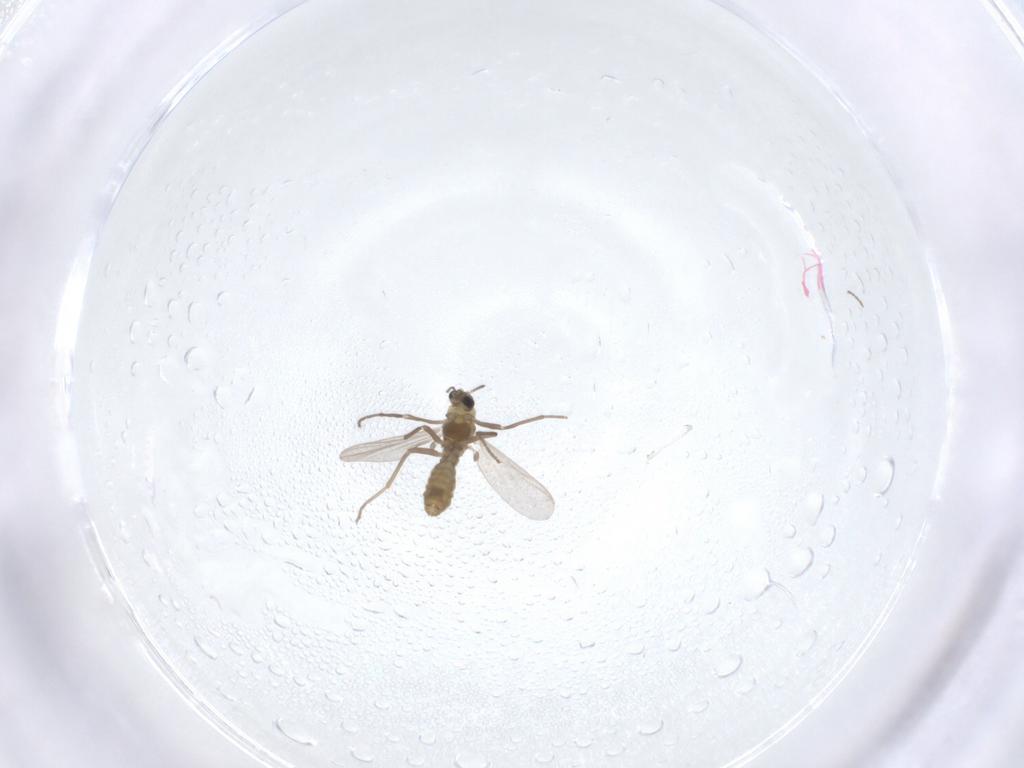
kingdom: Animalia
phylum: Arthropoda
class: Insecta
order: Diptera
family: Chironomidae
